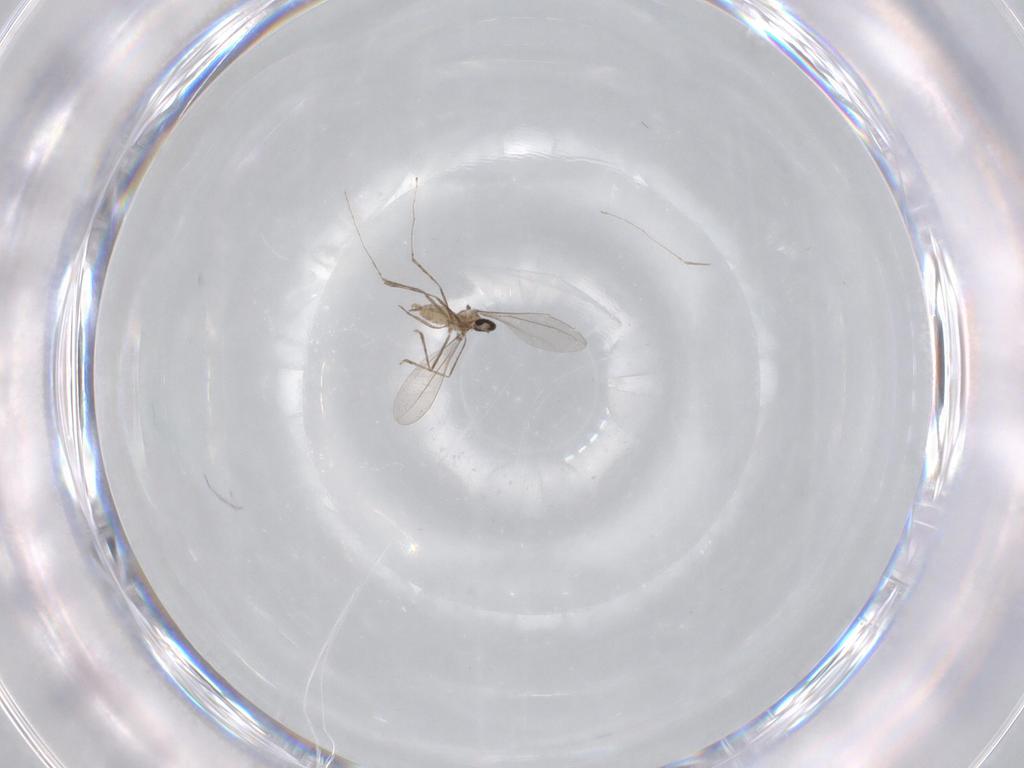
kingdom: Animalia
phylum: Arthropoda
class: Insecta
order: Diptera
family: Cecidomyiidae
